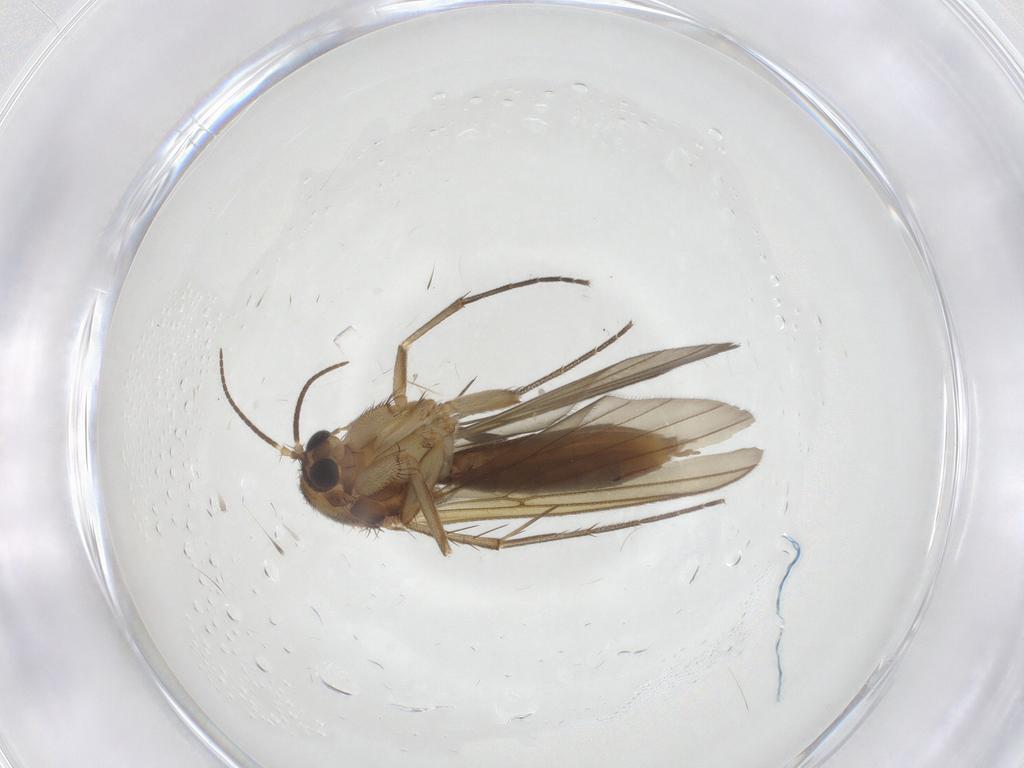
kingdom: Animalia
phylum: Arthropoda
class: Insecta
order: Diptera
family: Mycetophilidae
